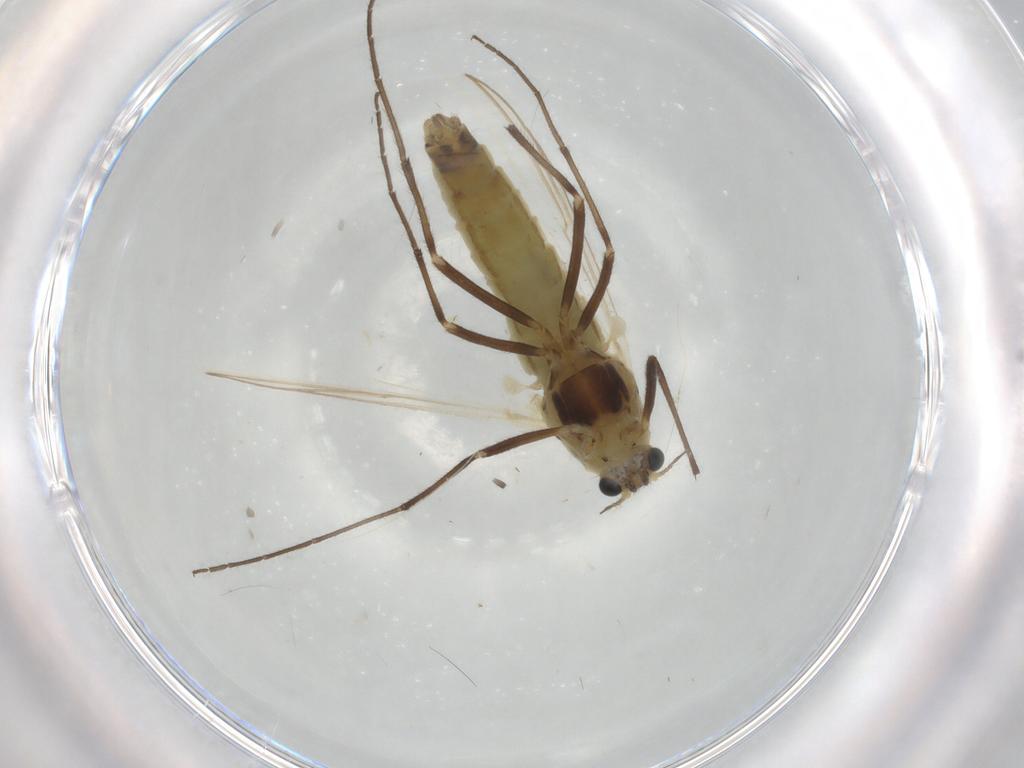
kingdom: Animalia
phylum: Arthropoda
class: Insecta
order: Diptera
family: Chironomidae
